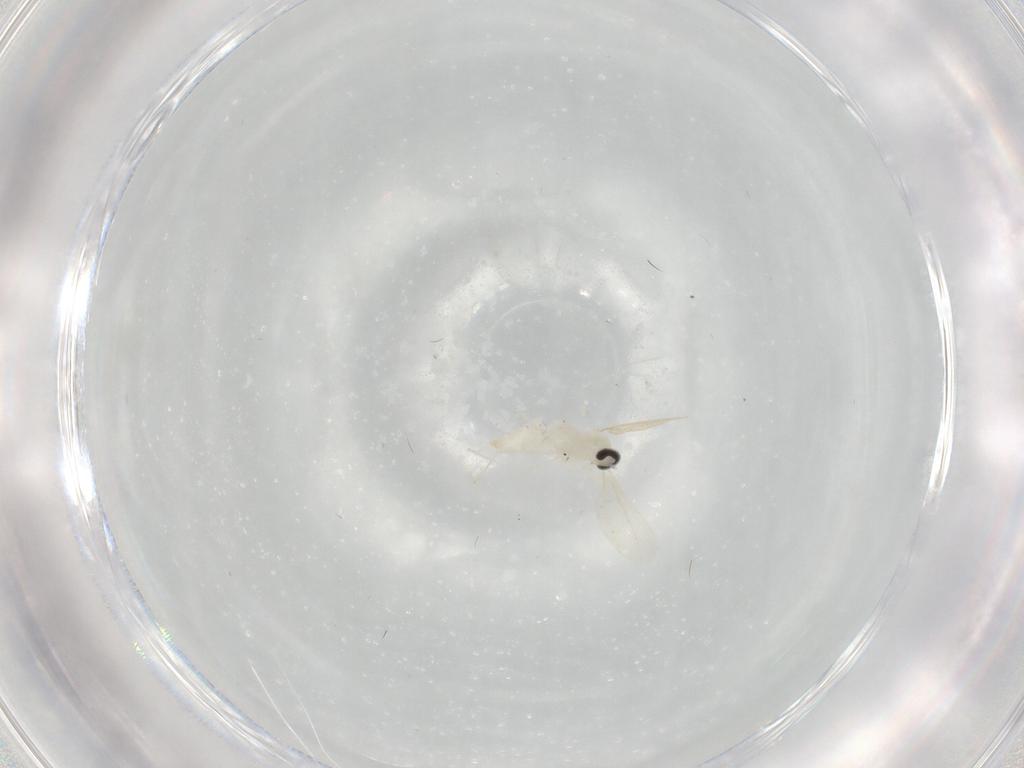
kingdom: Animalia
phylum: Arthropoda
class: Insecta
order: Diptera
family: Cecidomyiidae
